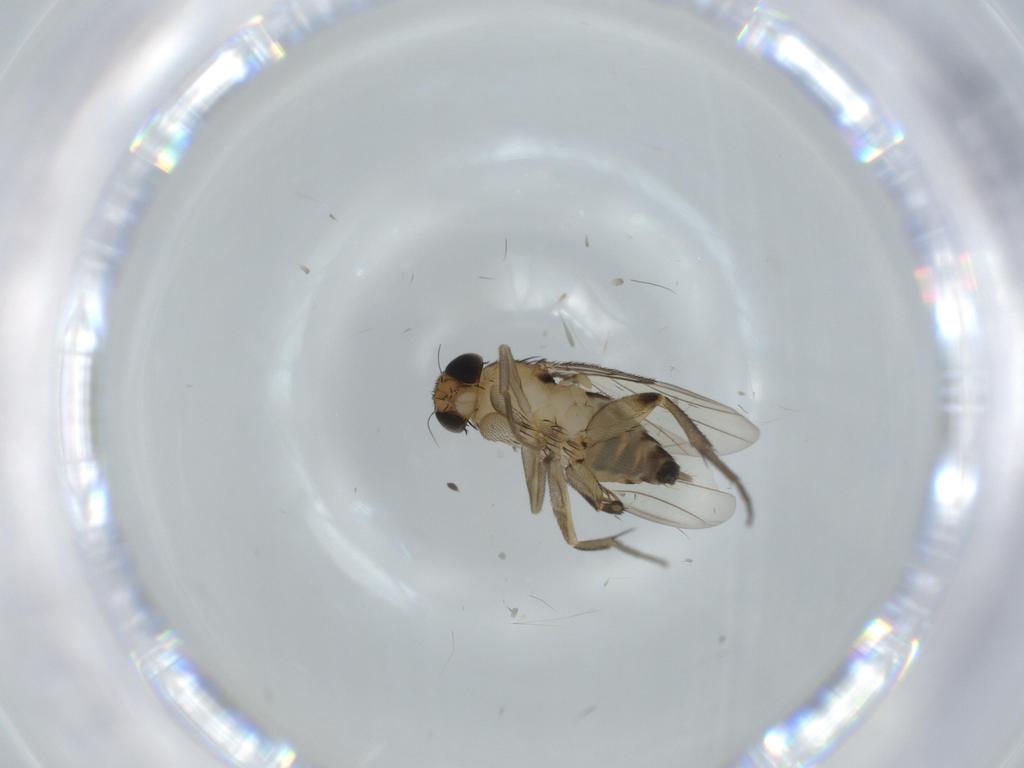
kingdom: Animalia
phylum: Arthropoda
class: Insecta
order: Diptera
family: Phoridae
